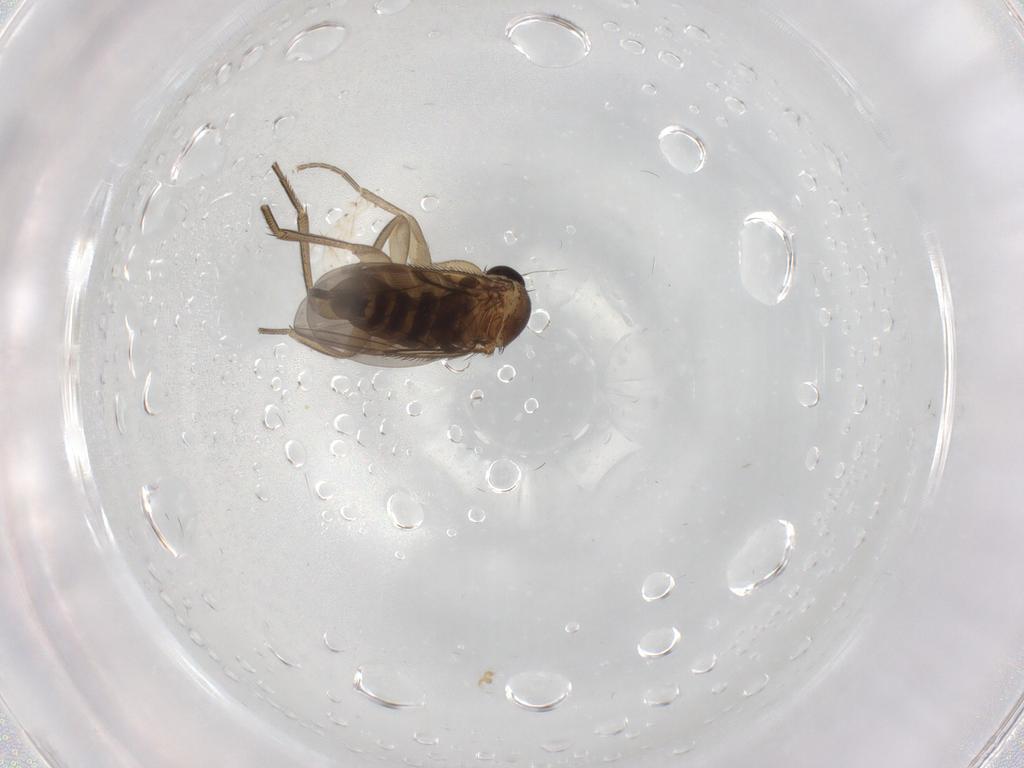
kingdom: Animalia
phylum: Arthropoda
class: Insecta
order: Diptera
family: Phoridae
